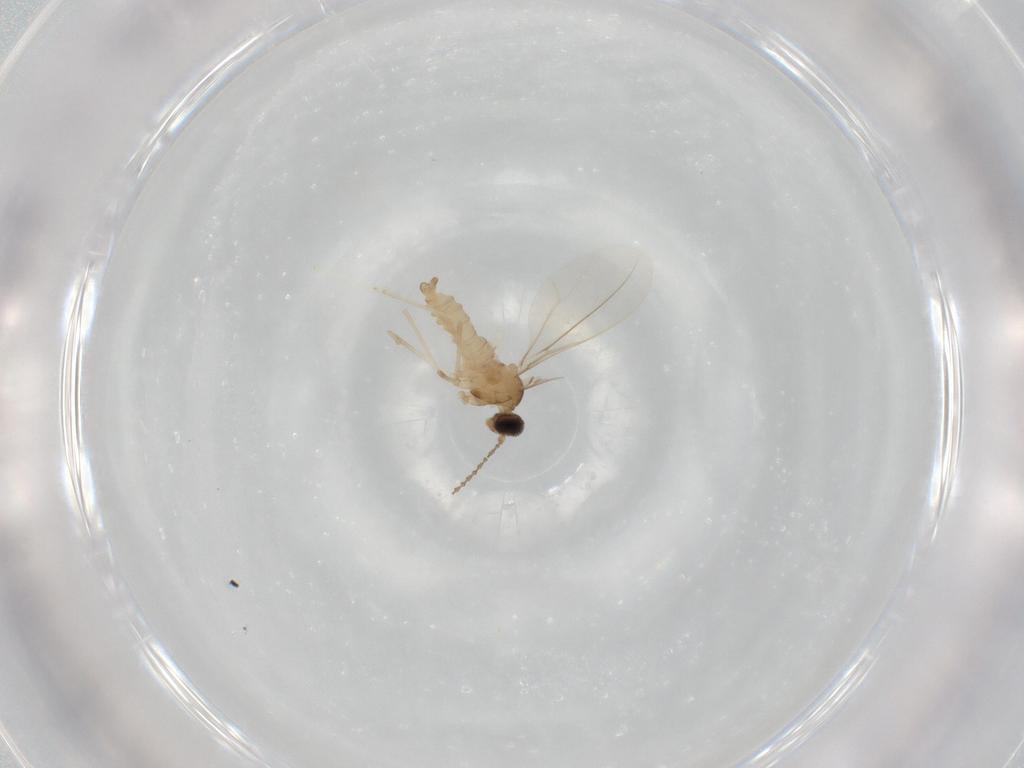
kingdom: Animalia
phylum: Arthropoda
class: Insecta
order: Diptera
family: Cecidomyiidae
